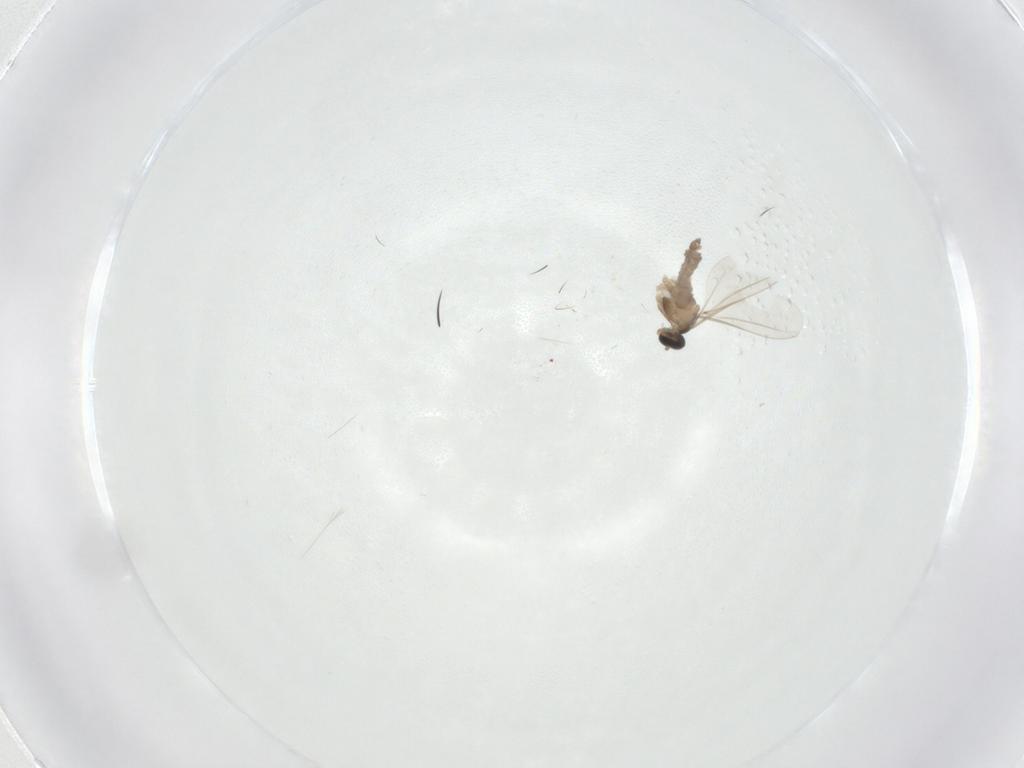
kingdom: Animalia
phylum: Arthropoda
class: Insecta
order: Diptera
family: Cecidomyiidae
